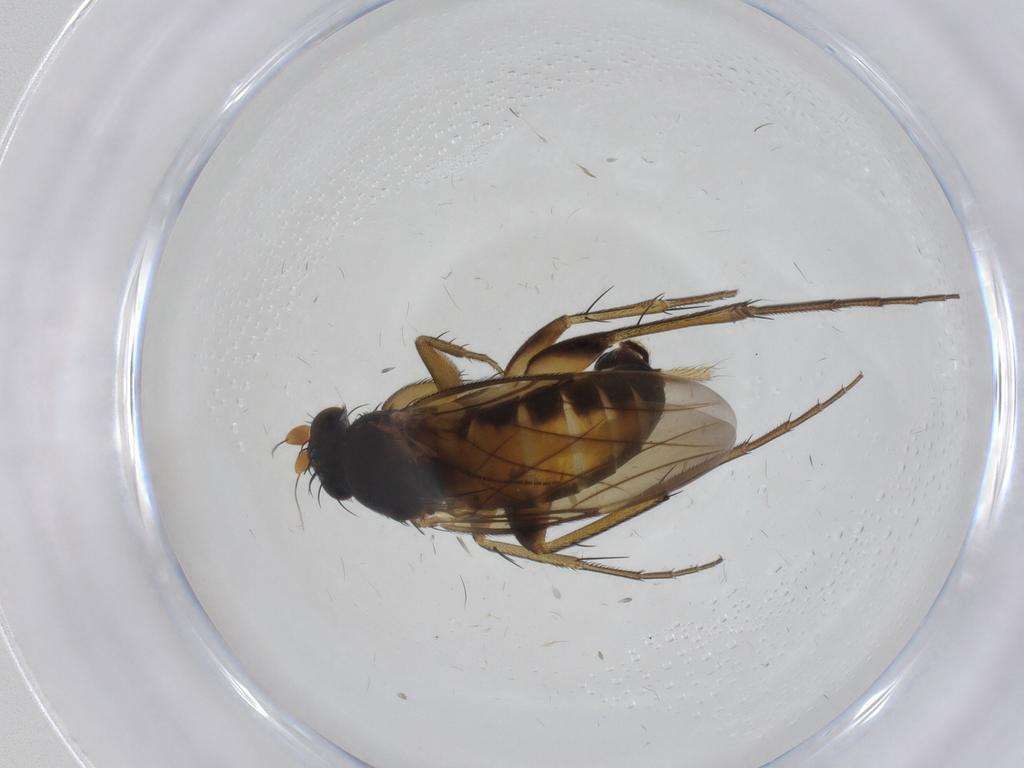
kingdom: Animalia
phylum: Arthropoda
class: Insecta
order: Diptera
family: Phoridae
